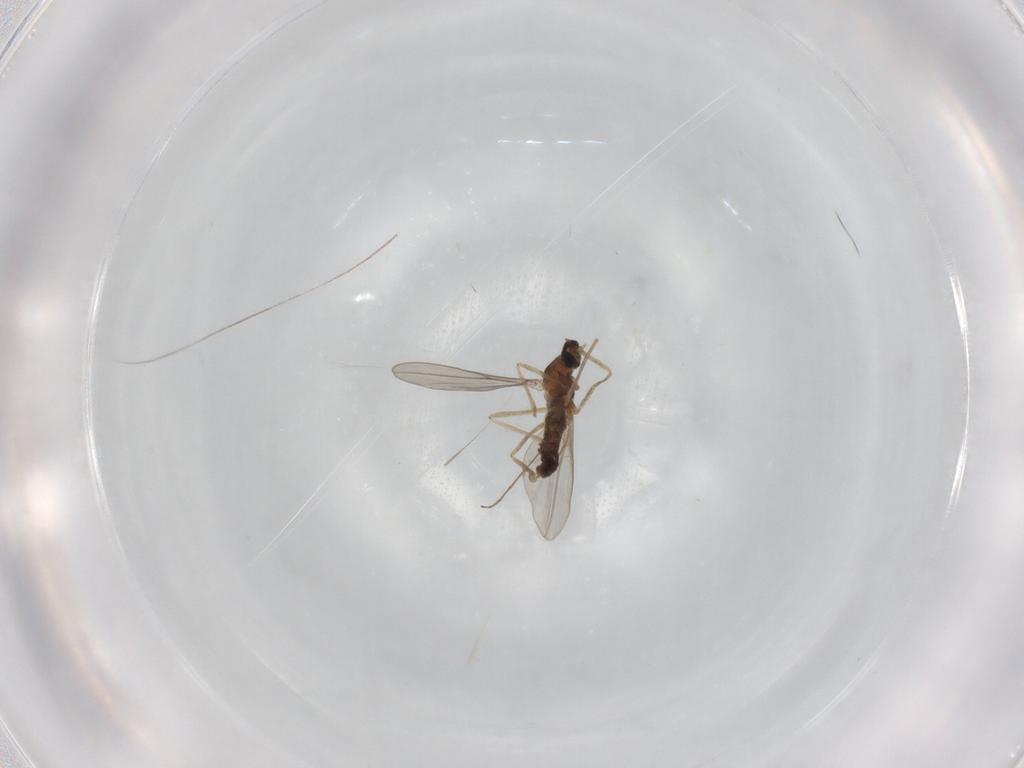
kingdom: Animalia
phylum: Arthropoda
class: Insecta
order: Diptera
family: Cecidomyiidae
